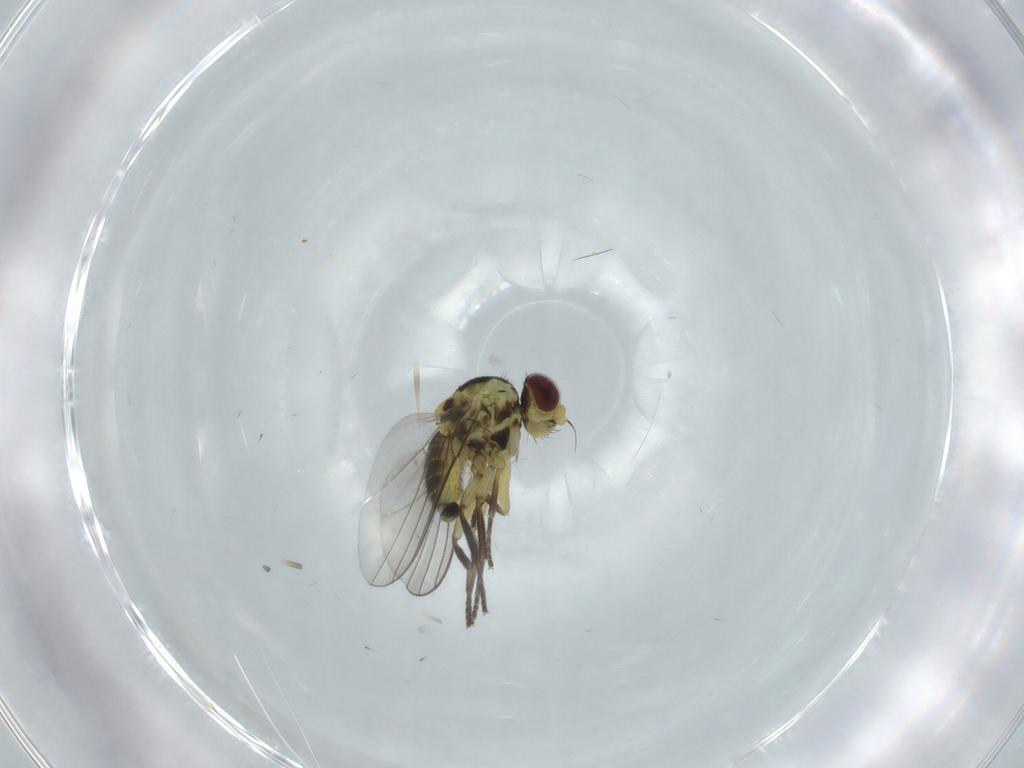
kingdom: Animalia
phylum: Arthropoda
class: Insecta
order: Diptera
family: Agromyzidae
